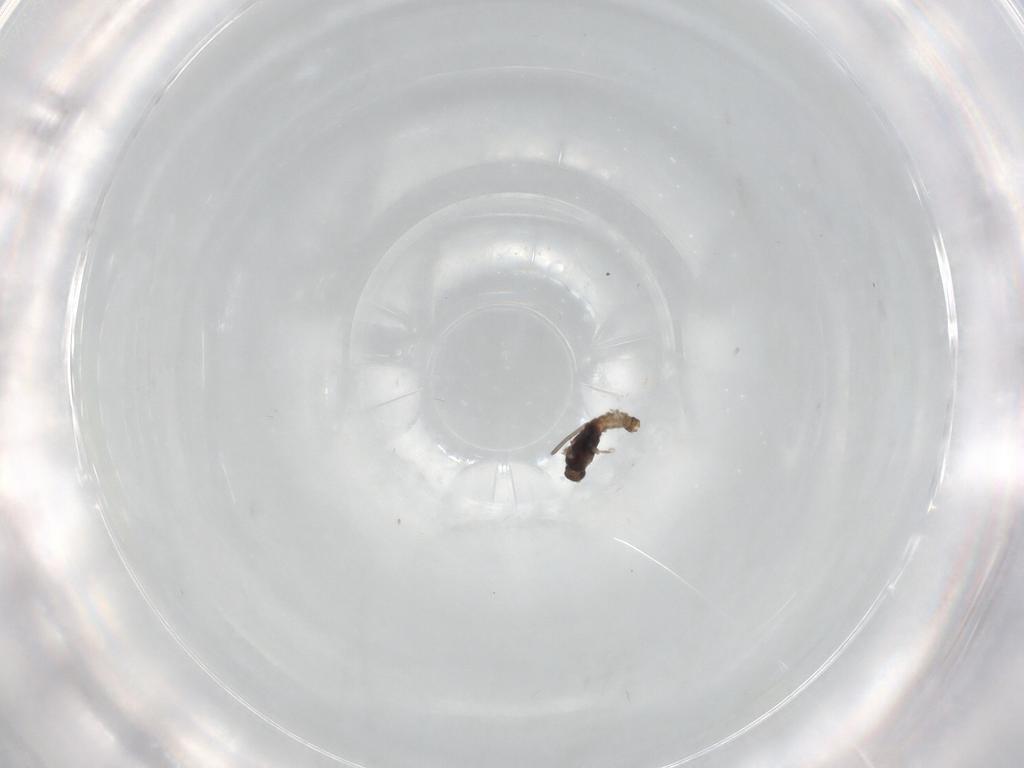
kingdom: Animalia
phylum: Arthropoda
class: Insecta
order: Diptera
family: Cecidomyiidae
